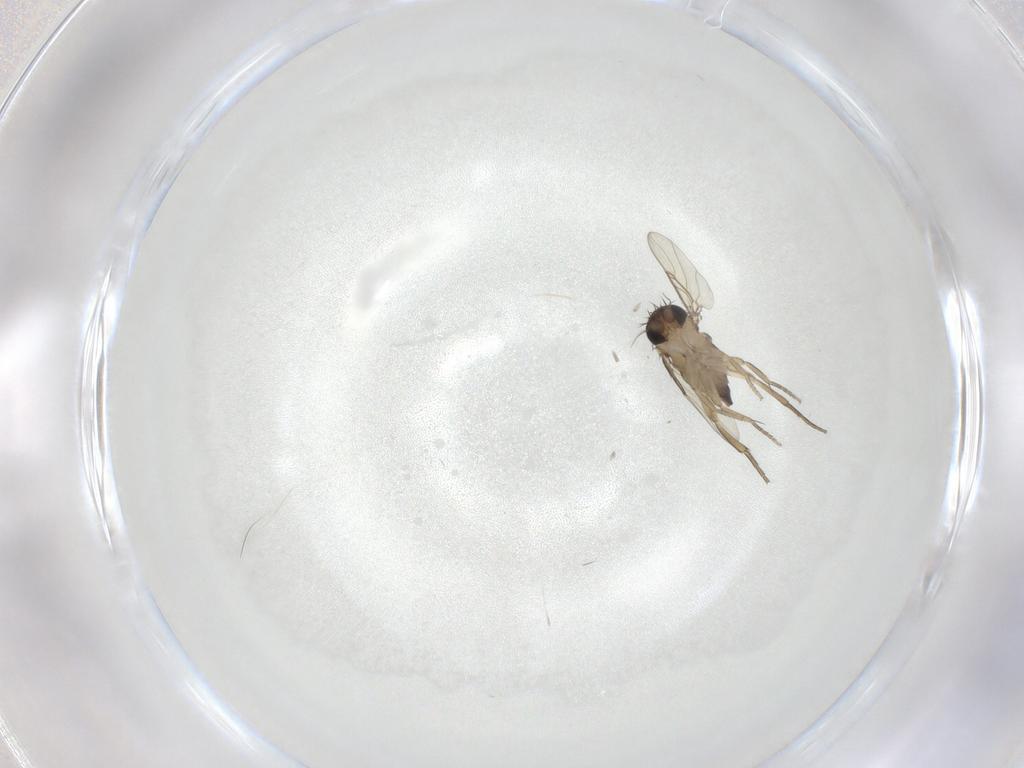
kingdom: Animalia
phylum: Arthropoda
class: Insecta
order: Diptera
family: Phoridae
